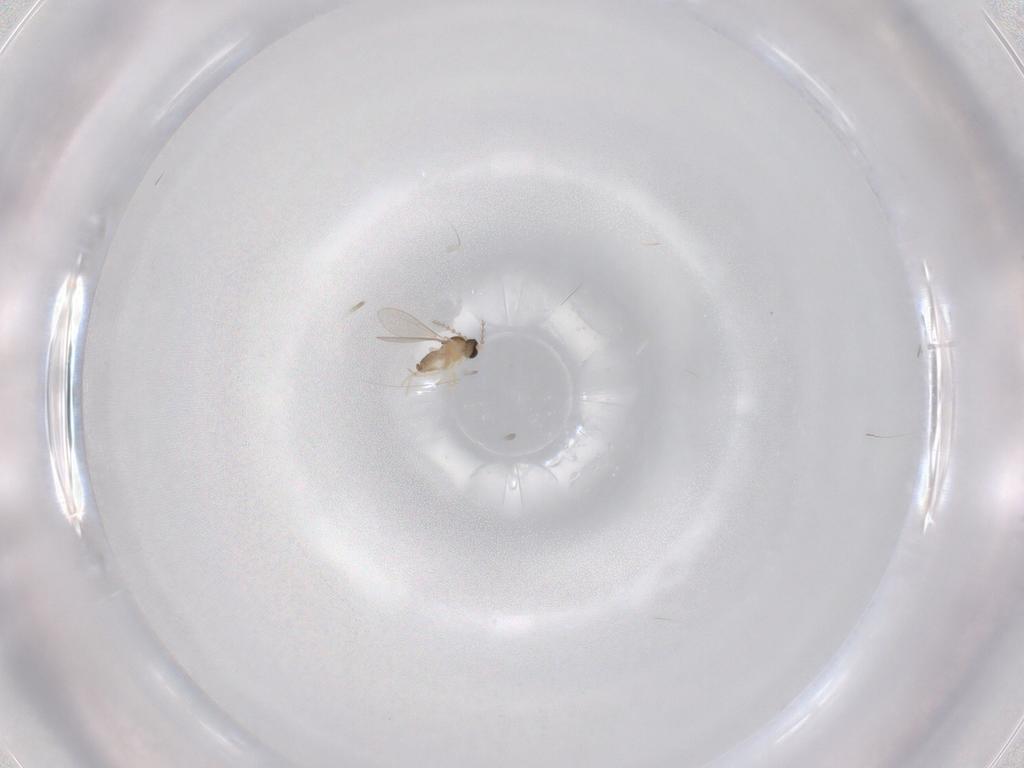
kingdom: Animalia
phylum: Arthropoda
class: Insecta
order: Diptera
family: Cecidomyiidae
